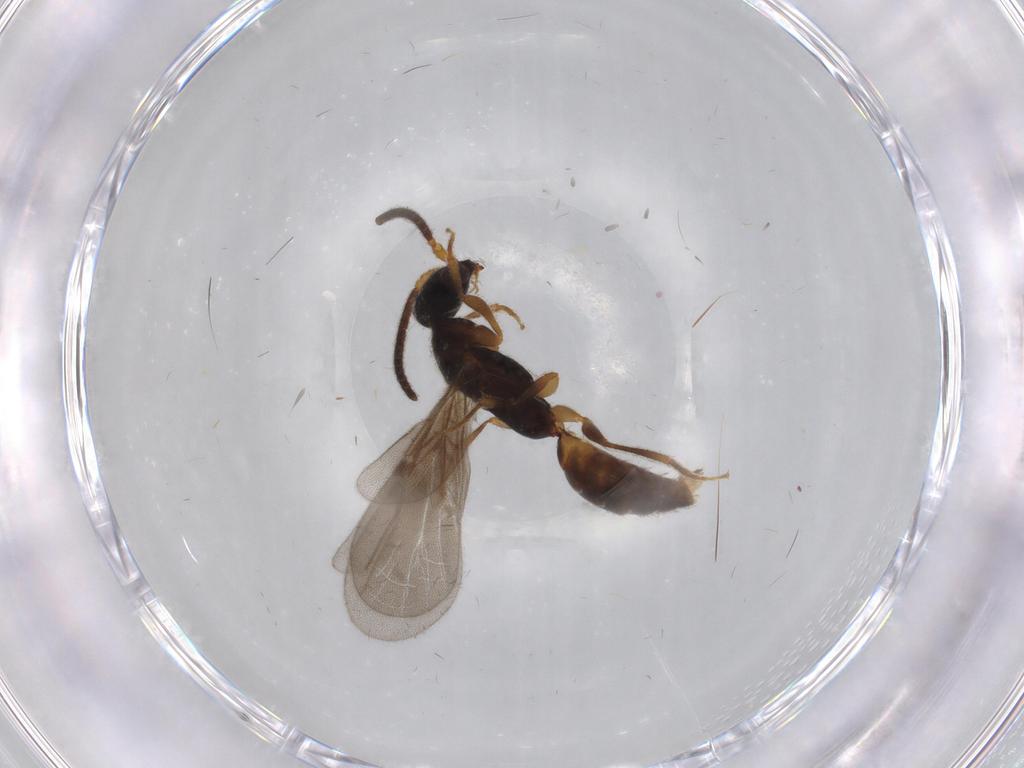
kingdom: Animalia
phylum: Arthropoda
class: Insecta
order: Hymenoptera
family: Bethylidae
